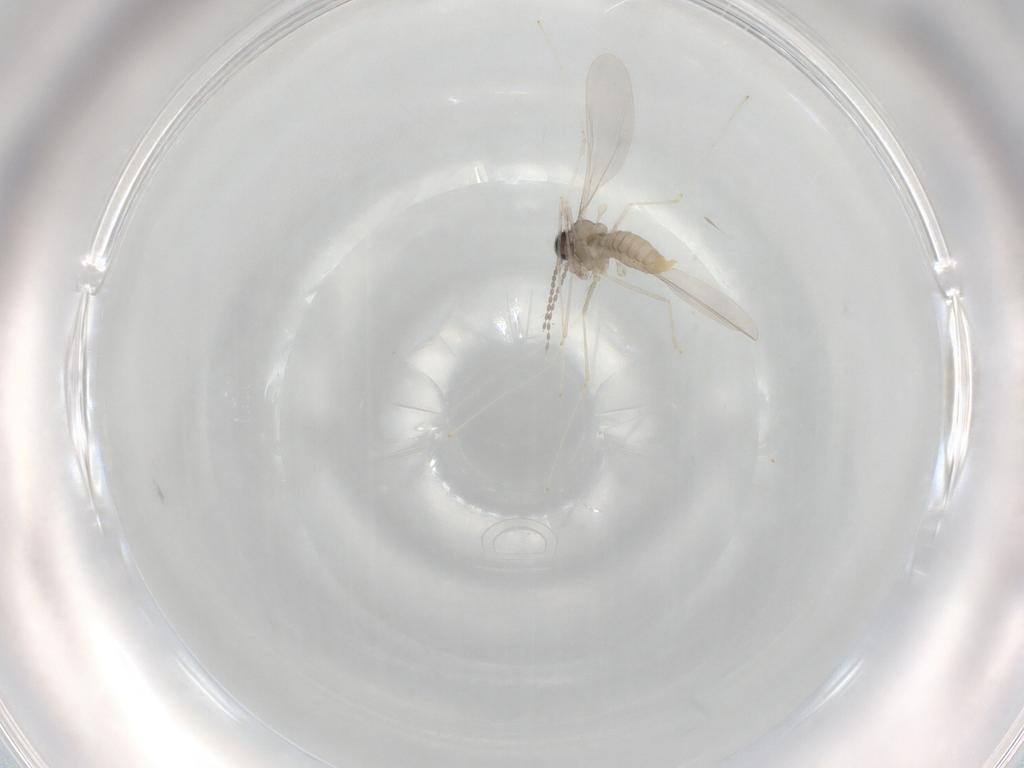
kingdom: Animalia
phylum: Arthropoda
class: Insecta
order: Diptera
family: Cecidomyiidae
